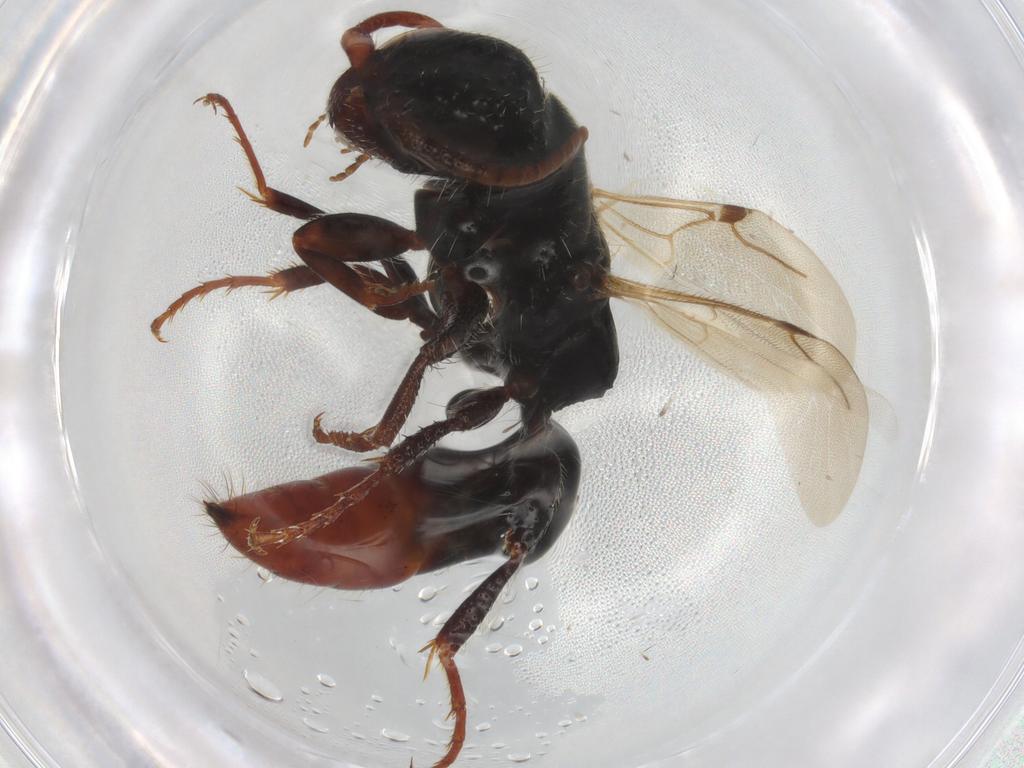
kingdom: Animalia
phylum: Arthropoda
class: Insecta
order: Hymenoptera
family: Bethylidae
